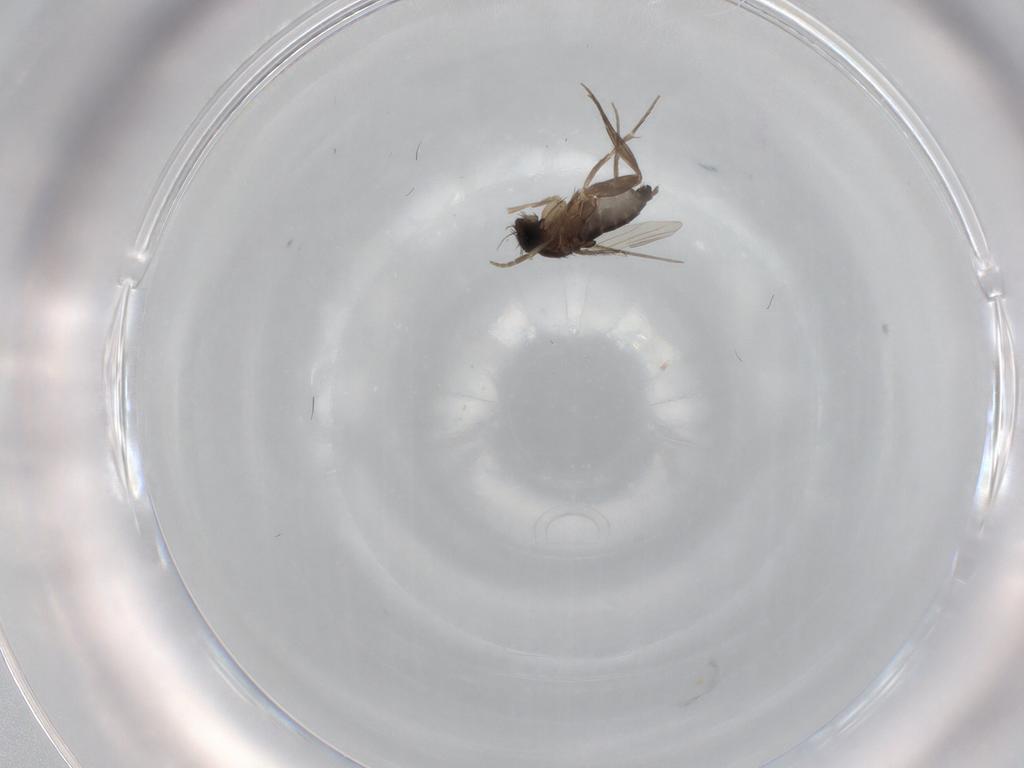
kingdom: Animalia
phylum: Arthropoda
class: Insecta
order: Diptera
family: Phoridae
